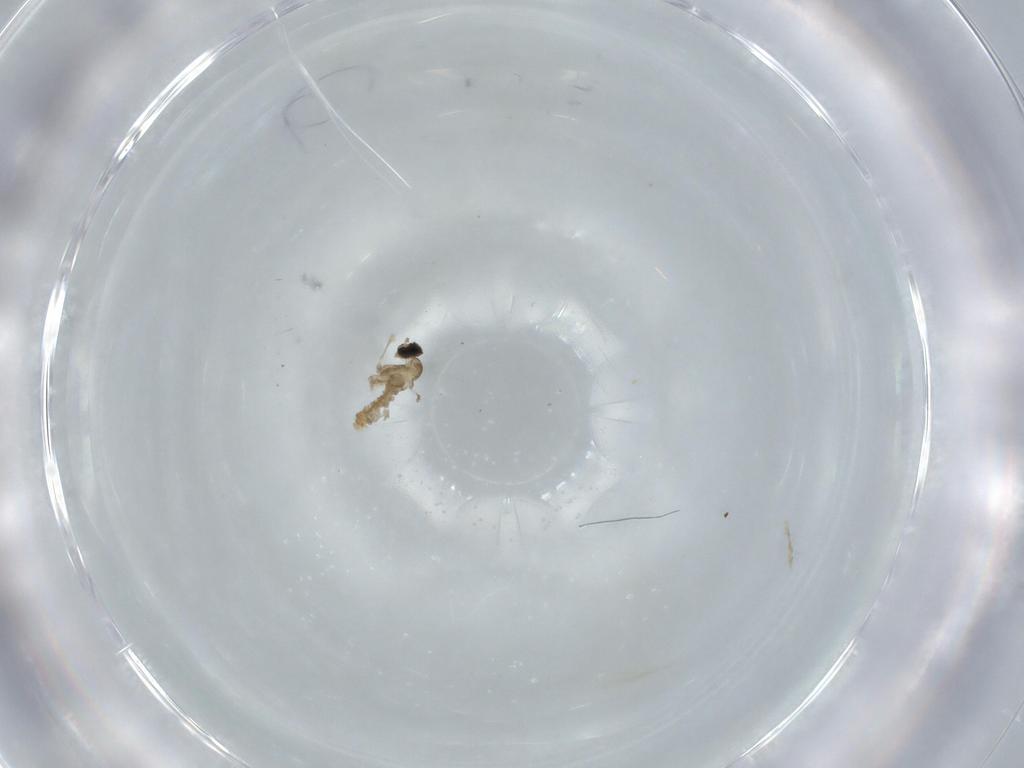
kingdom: Animalia
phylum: Arthropoda
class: Insecta
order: Diptera
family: Cecidomyiidae
